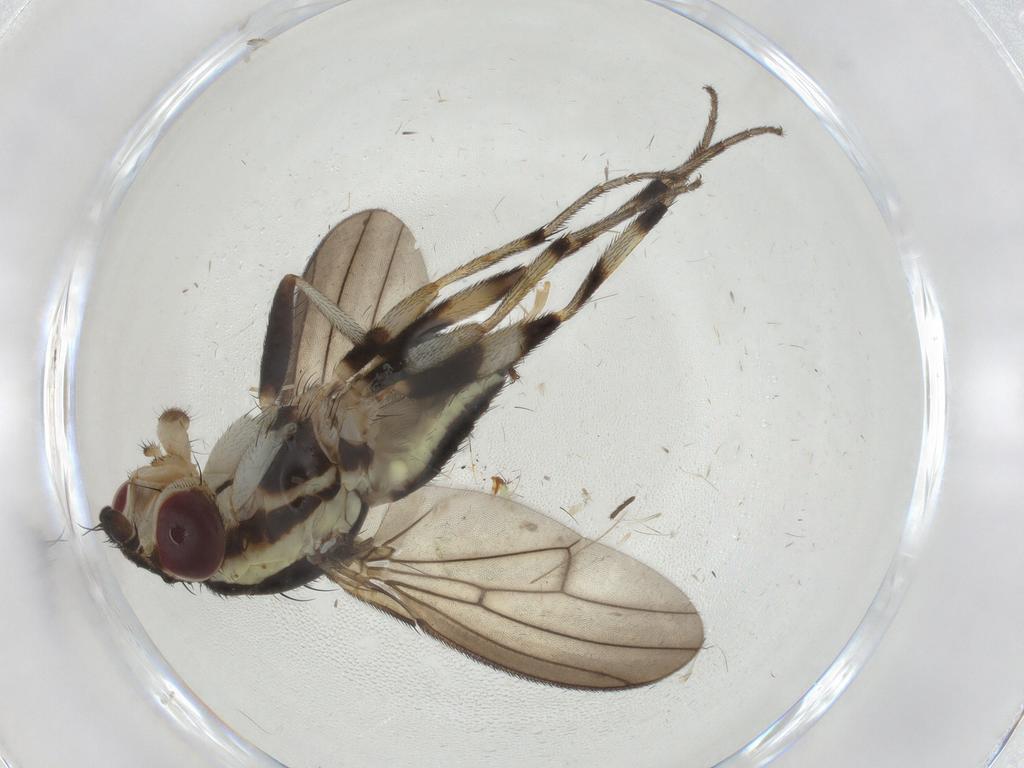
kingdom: Animalia
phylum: Arthropoda
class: Insecta
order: Diptera
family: Pseudopomyzidae
